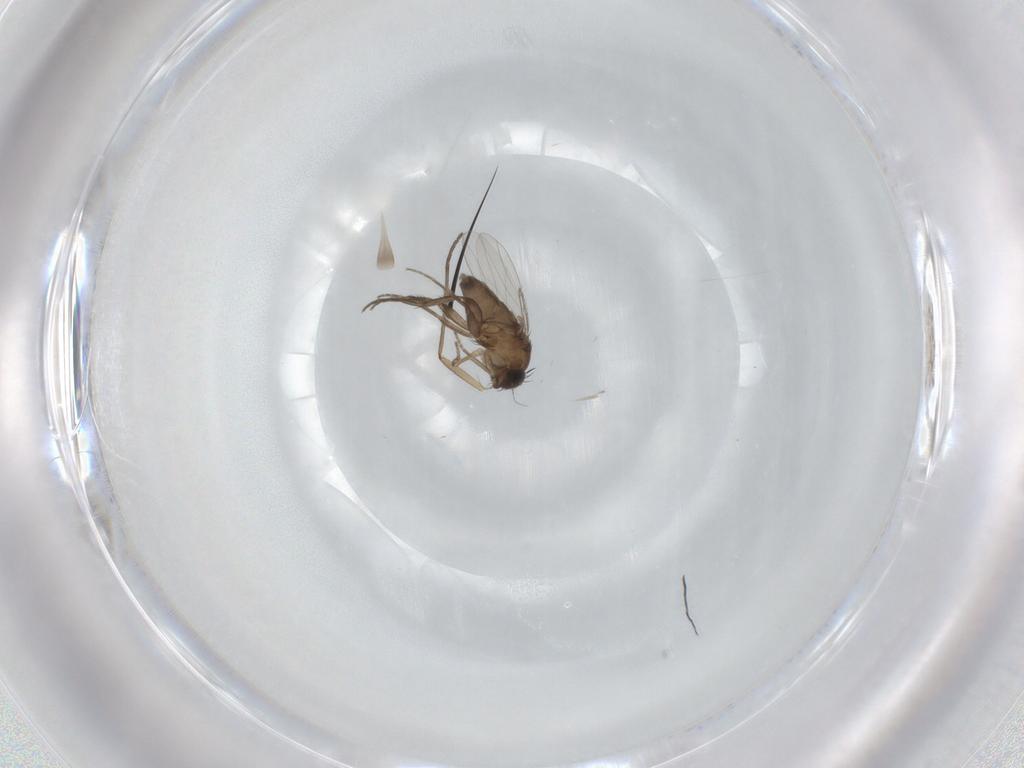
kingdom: Animalia
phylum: Arthropoda
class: Insecta
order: Diptera
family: Phoridae
